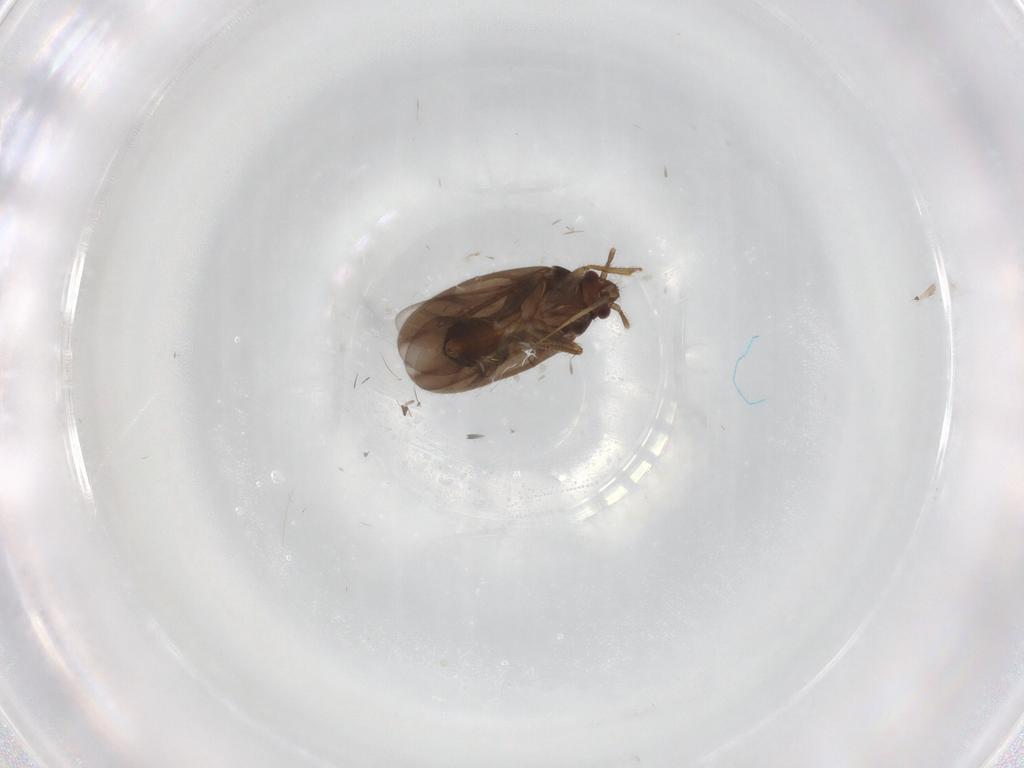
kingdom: Animalia
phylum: Arthropoda
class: Insecta
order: Hemiptera
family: Ceratocombidae
